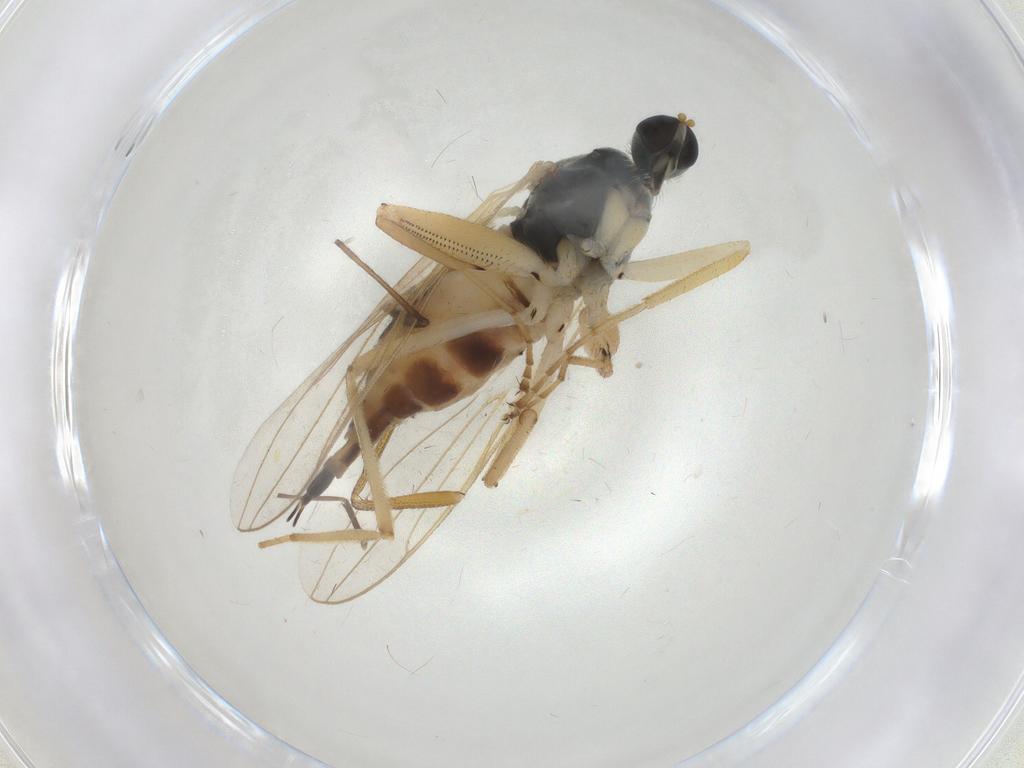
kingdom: Animalia
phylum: Arthropoda
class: Insecta
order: Diptera
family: Hybotidae
